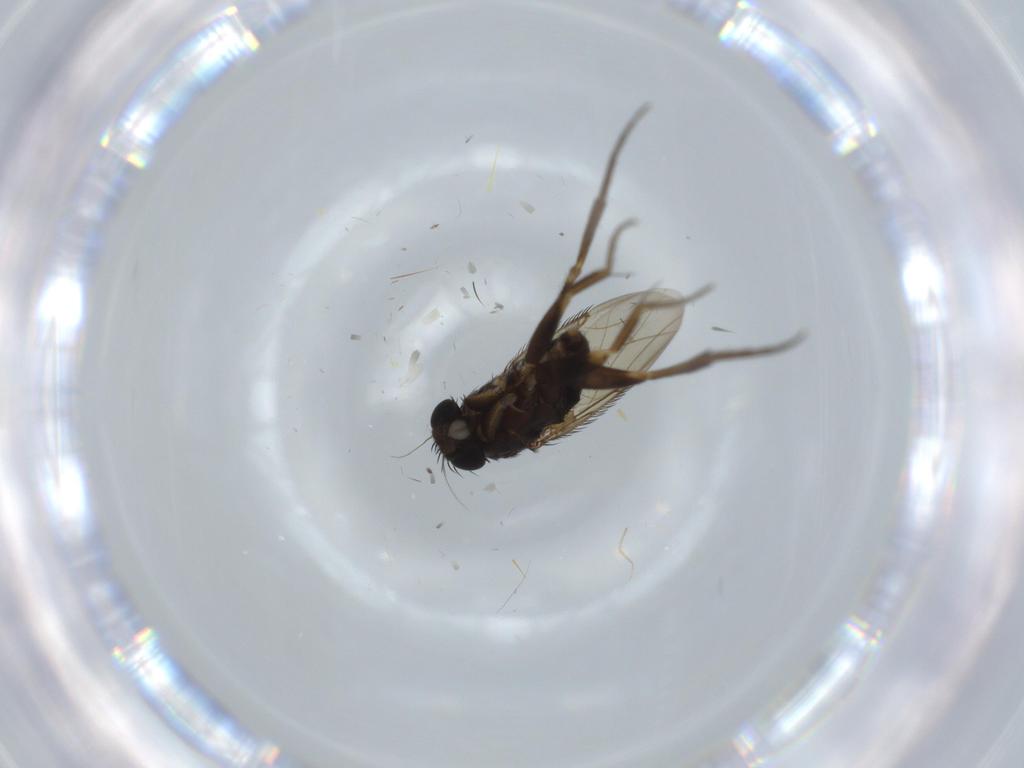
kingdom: Animalia
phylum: Arthropoda
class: Insecta
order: Diptera
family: Phoridae
